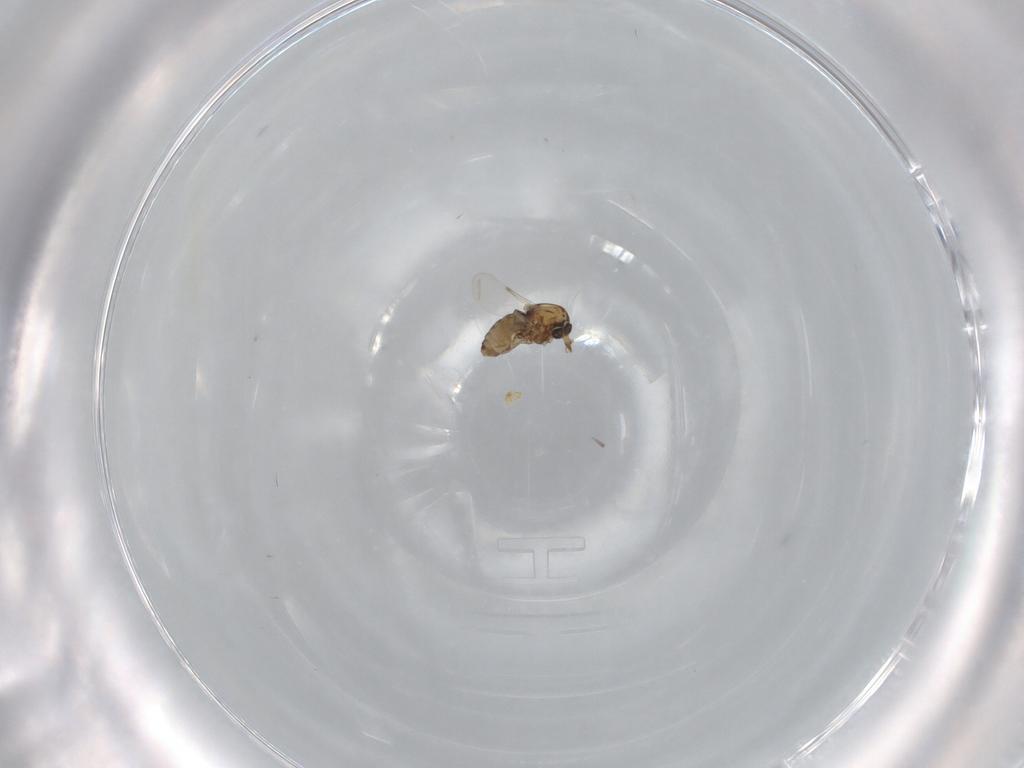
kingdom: Animalia
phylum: Arthropoda
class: Insecta
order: Diptera
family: Ceratopogonidae
